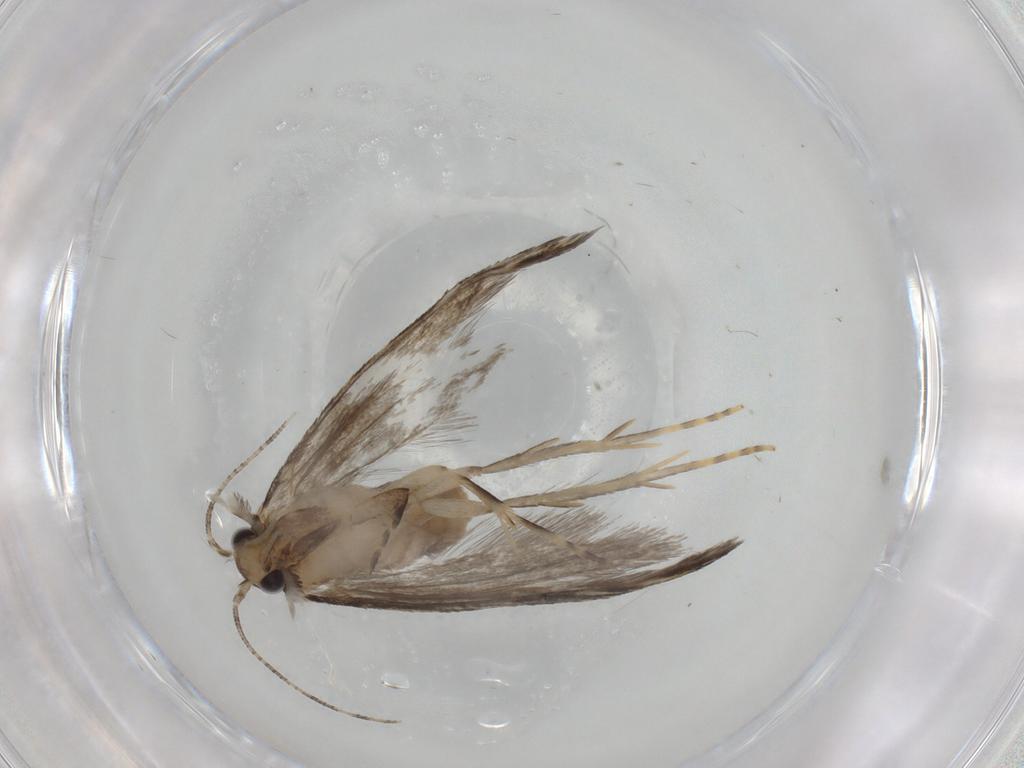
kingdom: Animalia
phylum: Arthropoda
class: Insecta
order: Lepidoptera
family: Tineidae
